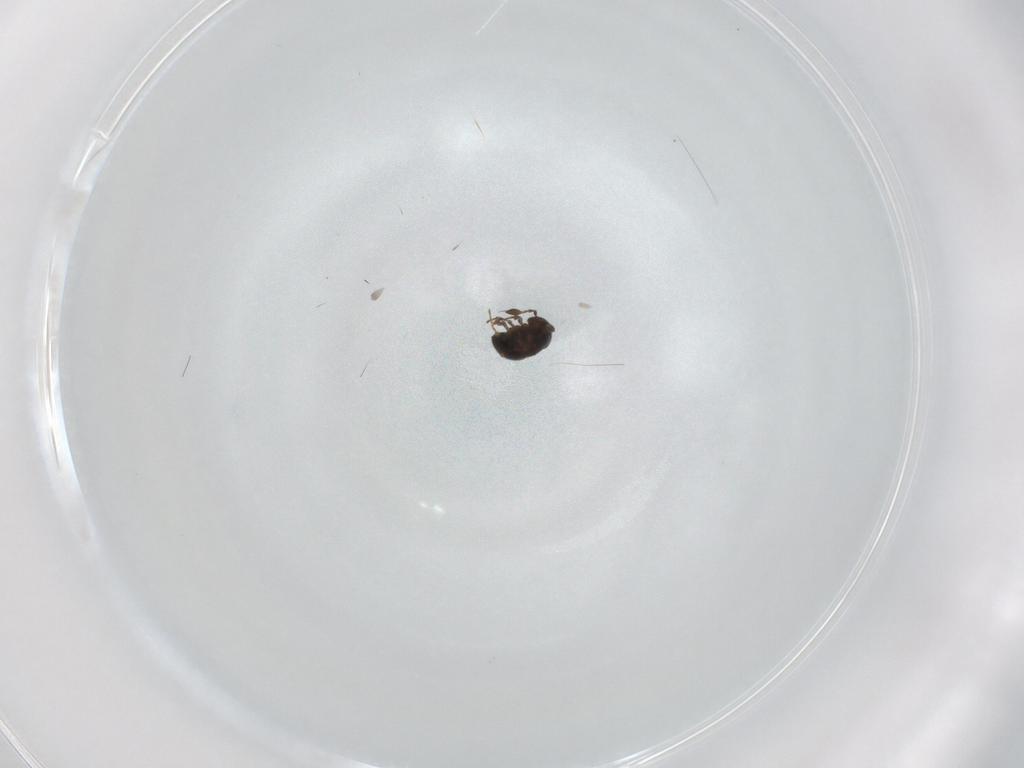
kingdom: Animalia
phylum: Arthropoda
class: Insecta
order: Hymenoptera
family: Scelionidae
